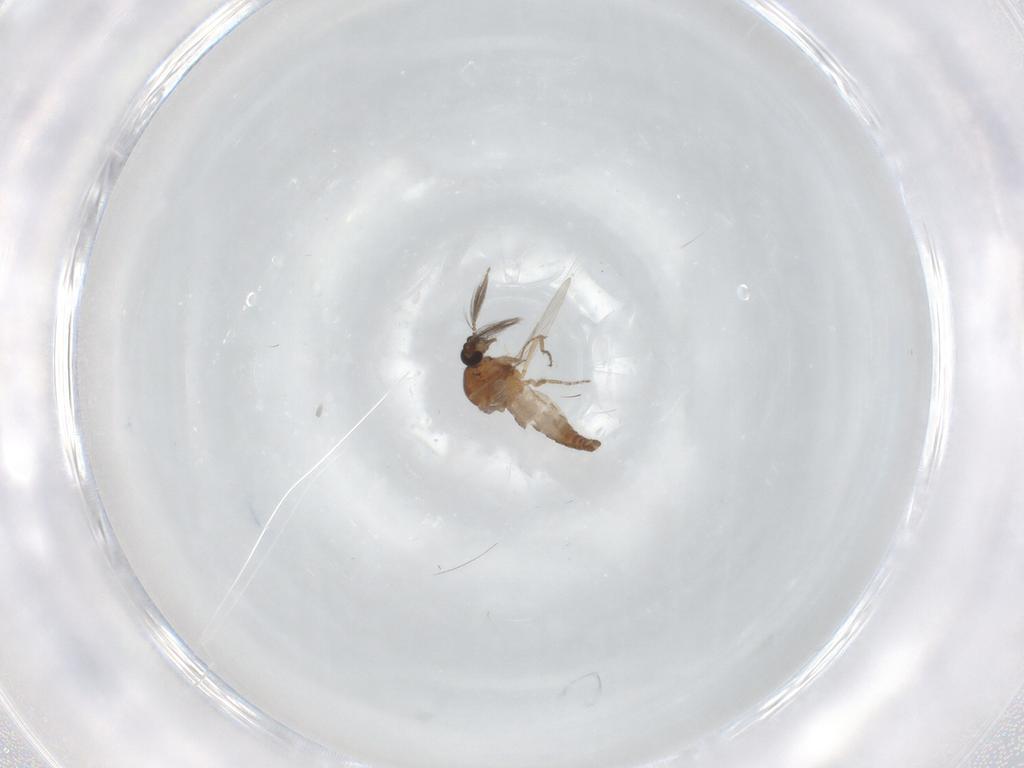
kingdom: Animalia
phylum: Arthropoda
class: Insecta
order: Diptera
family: Ceratopogonidae
